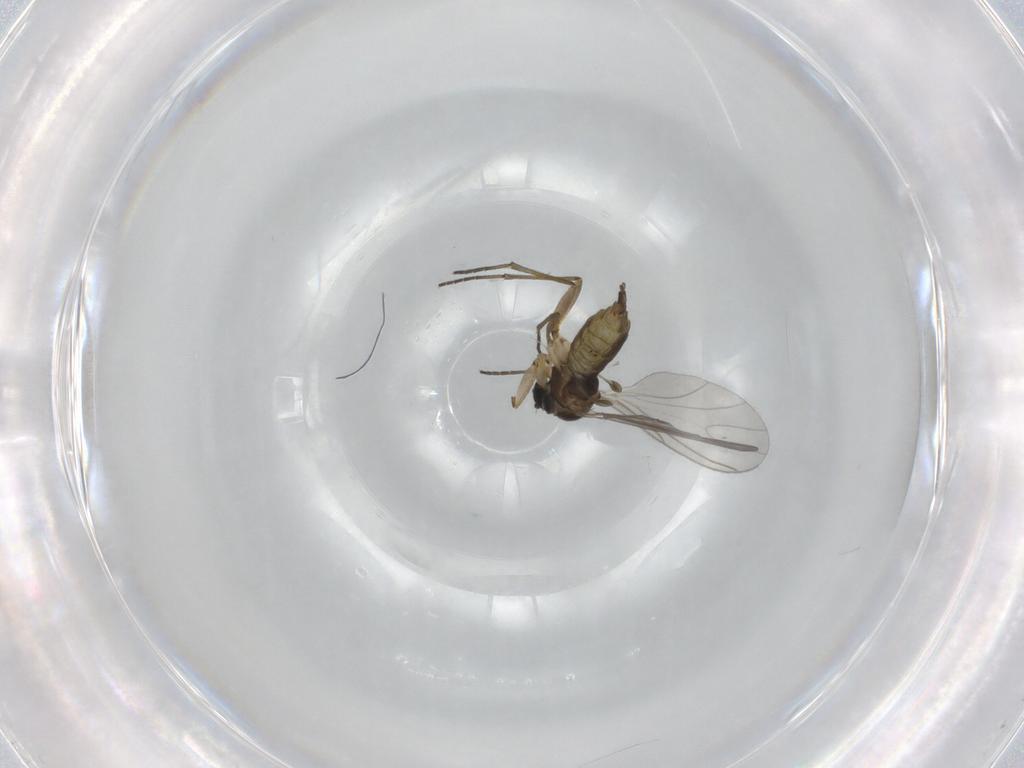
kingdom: Animalia
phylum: Arthropoda
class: Insecta
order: Diptera
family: Sciaridae
